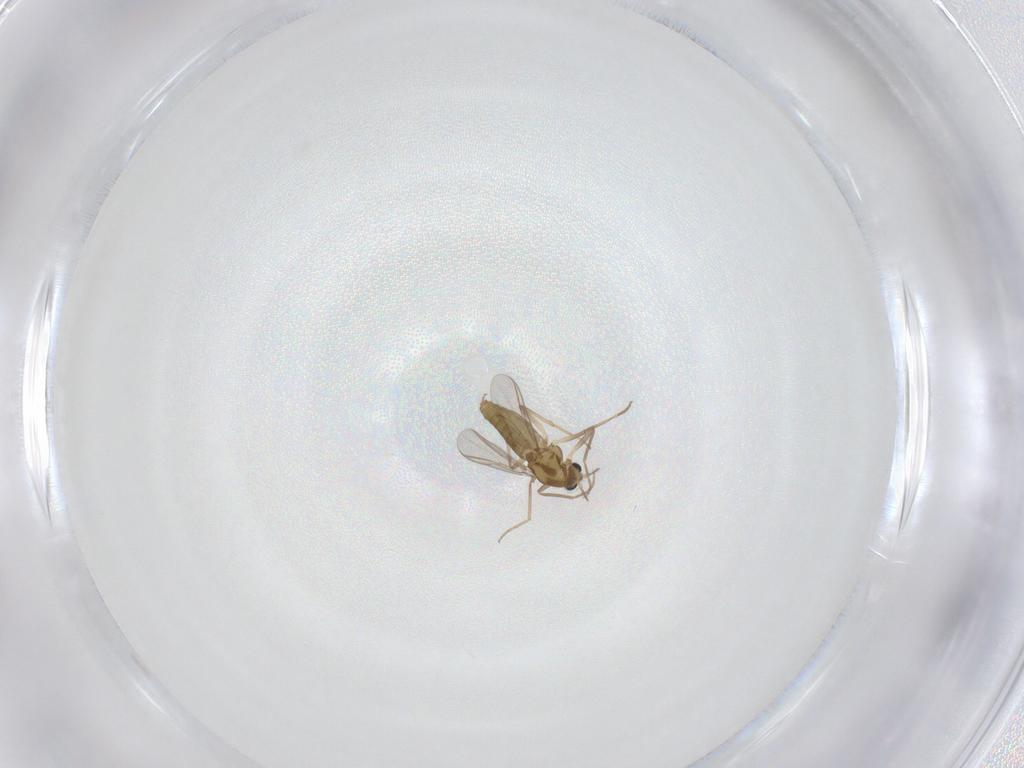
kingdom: Animalia
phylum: Arthropoda
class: Insecta
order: Diptera
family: Chironomidae
